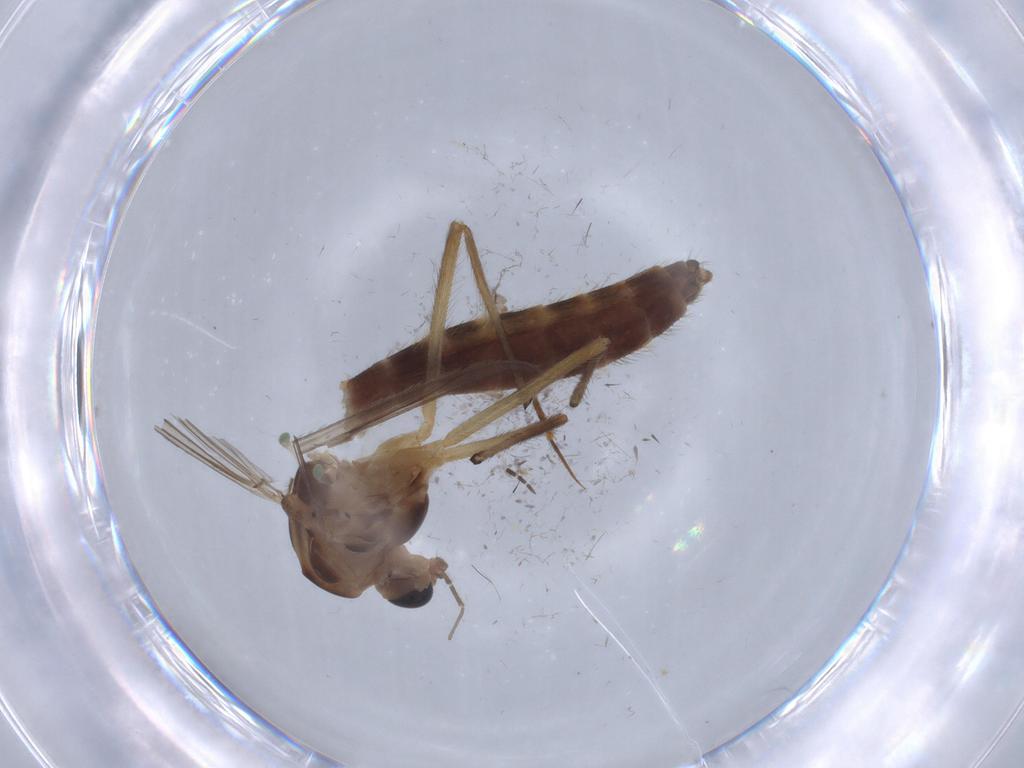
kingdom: Animalia
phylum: Arthropoda
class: Insecta
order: Diptera
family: Chironomidae
